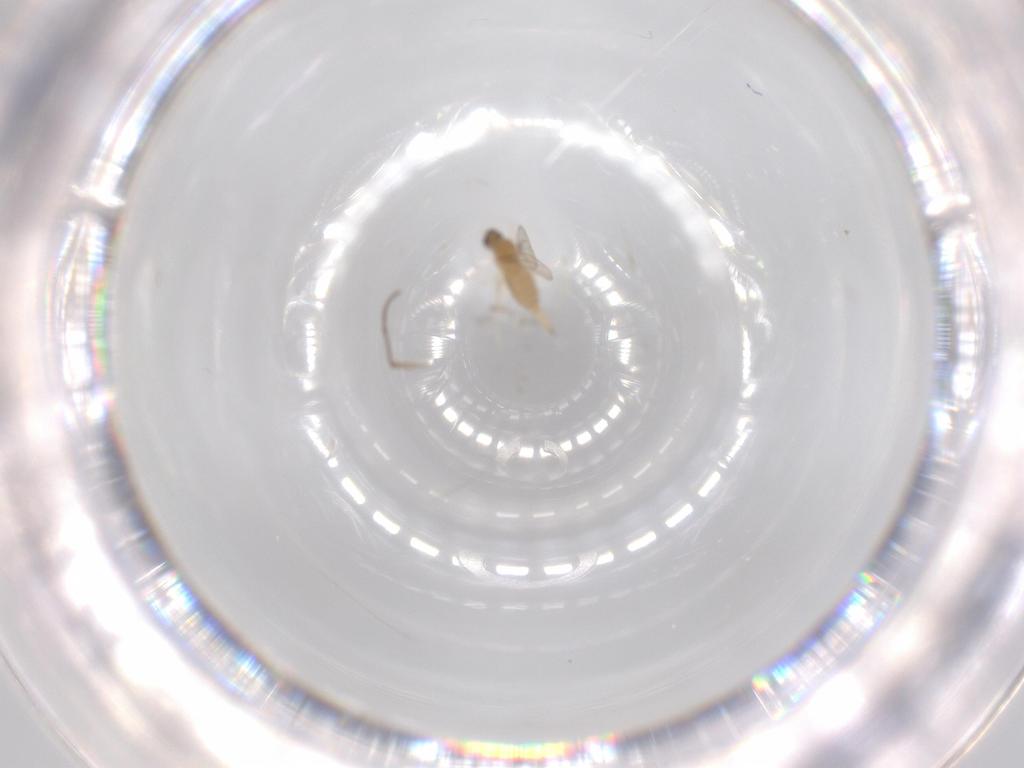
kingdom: Animalia
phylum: Arthropoda
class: Insecta
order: Diptera
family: Cecidomyiidae
